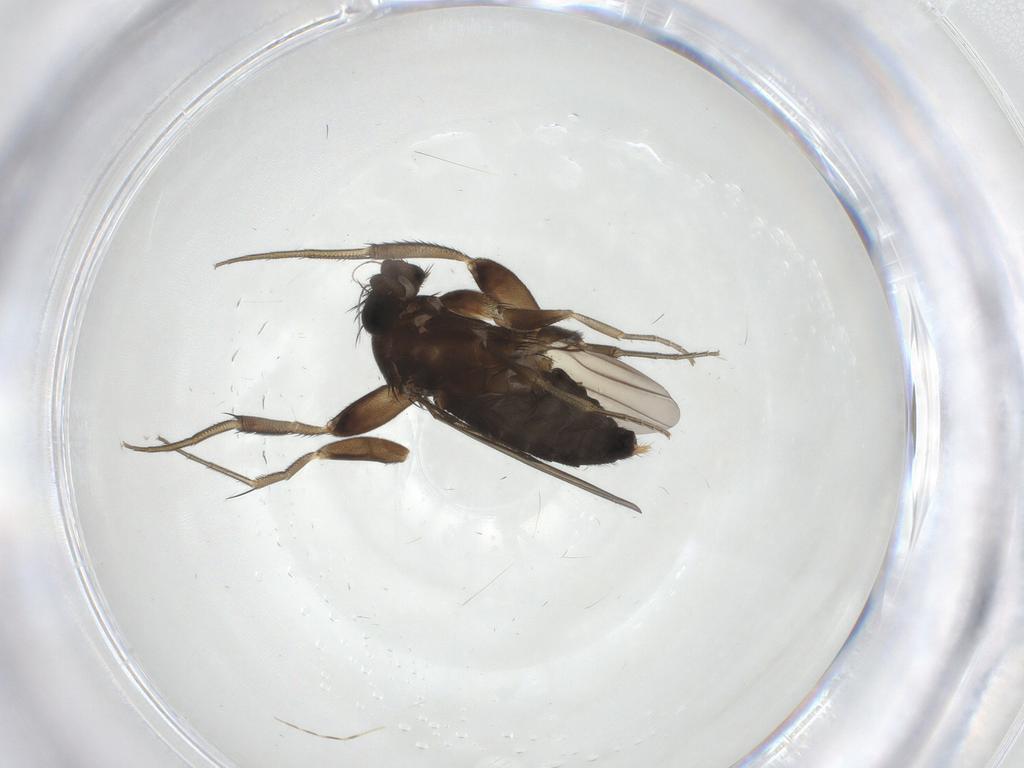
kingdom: Animalia
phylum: Arthropoda
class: Insecta
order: Diptera
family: Phoridae
